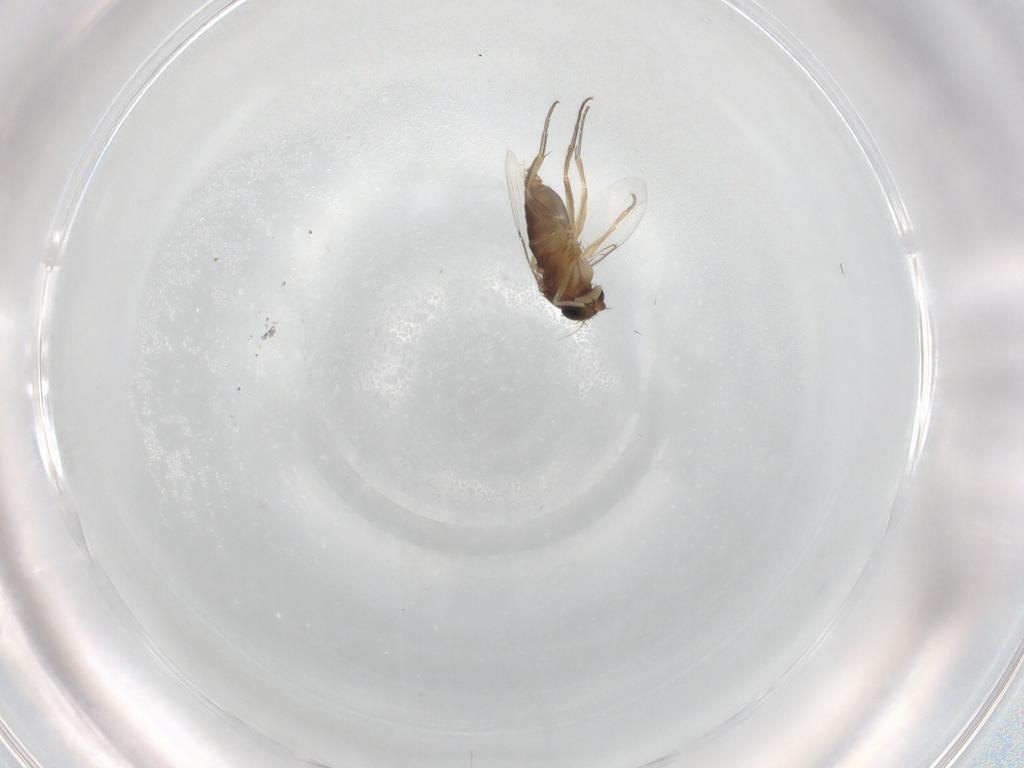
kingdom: Animalia
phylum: Arthropoda
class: Insecta
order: Diptera
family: Phoridae
